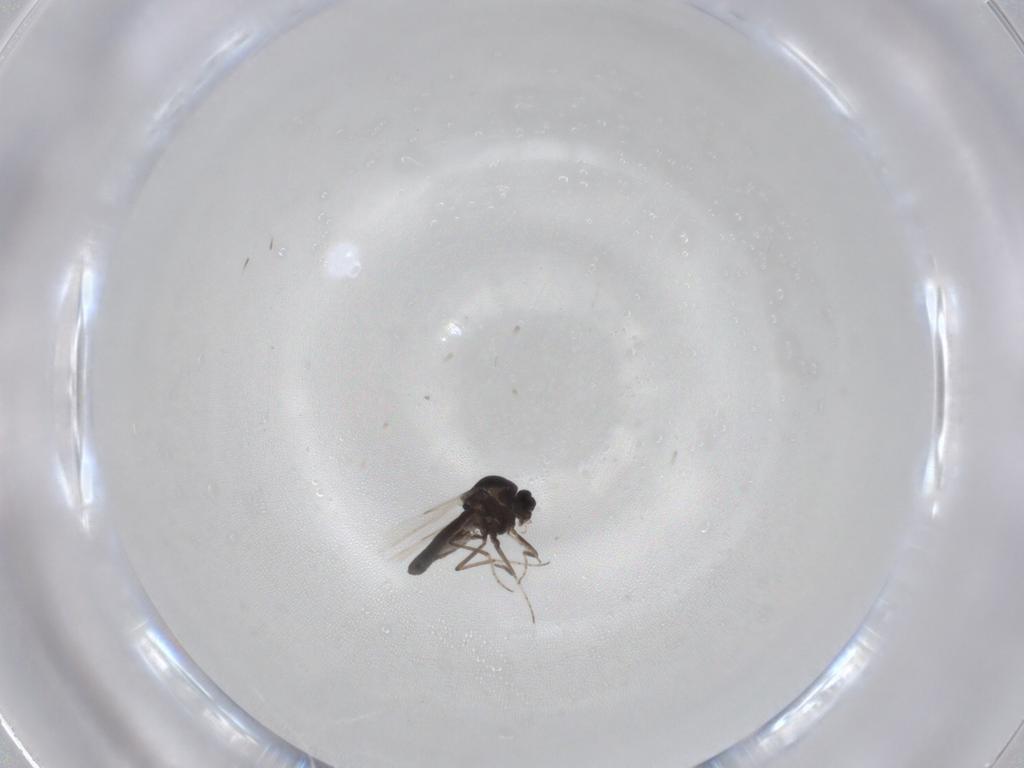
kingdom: Animalia
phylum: Arthropoda
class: Insecta
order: Diptera
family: Ceratopogonidae
